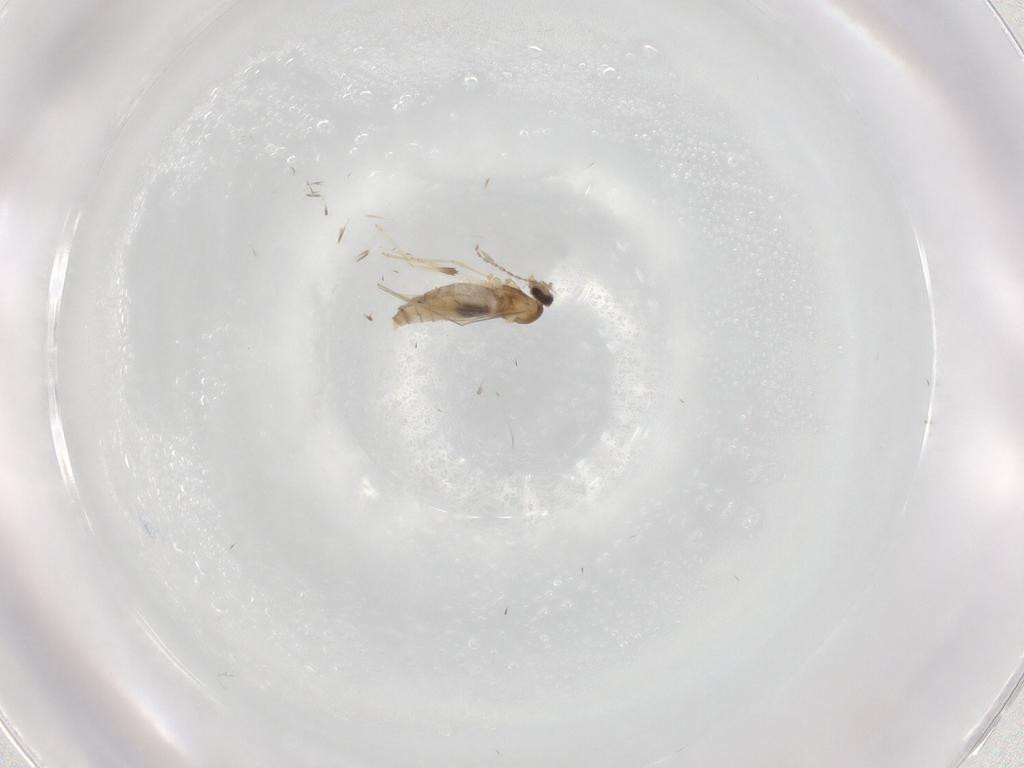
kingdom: Animalia
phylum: Arthropoda
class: Insecta
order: Diptera
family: Cecidomyiidae
